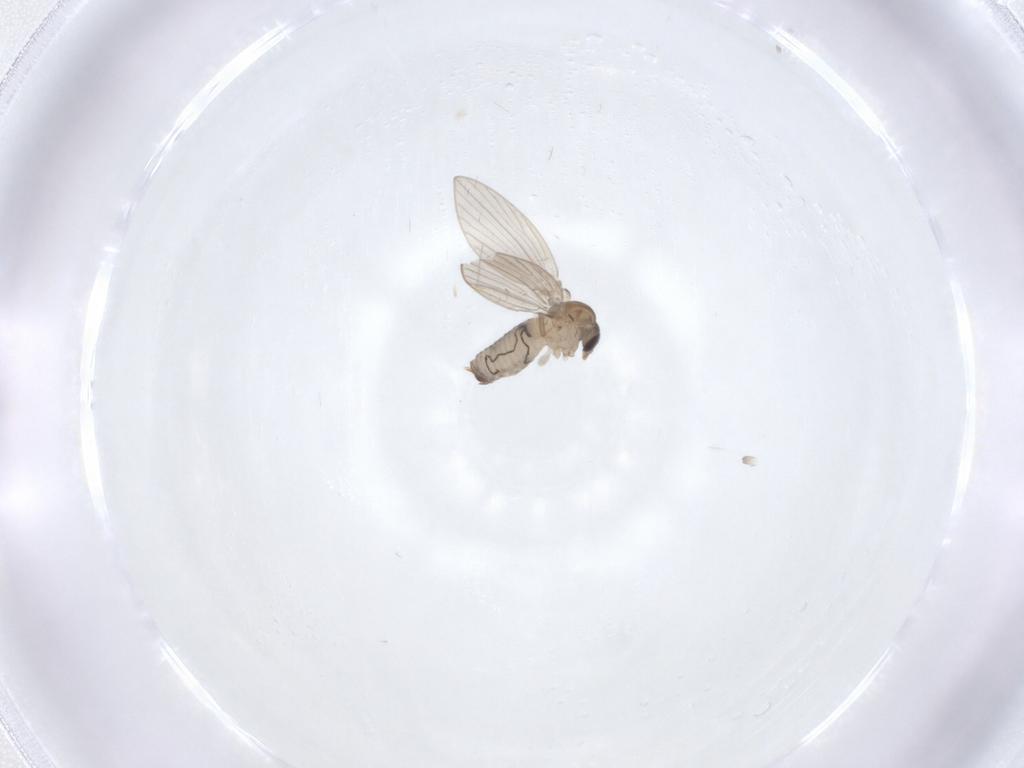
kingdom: Animalia
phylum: Arthropoda
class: Insecta
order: Diptera
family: Psychodidae
